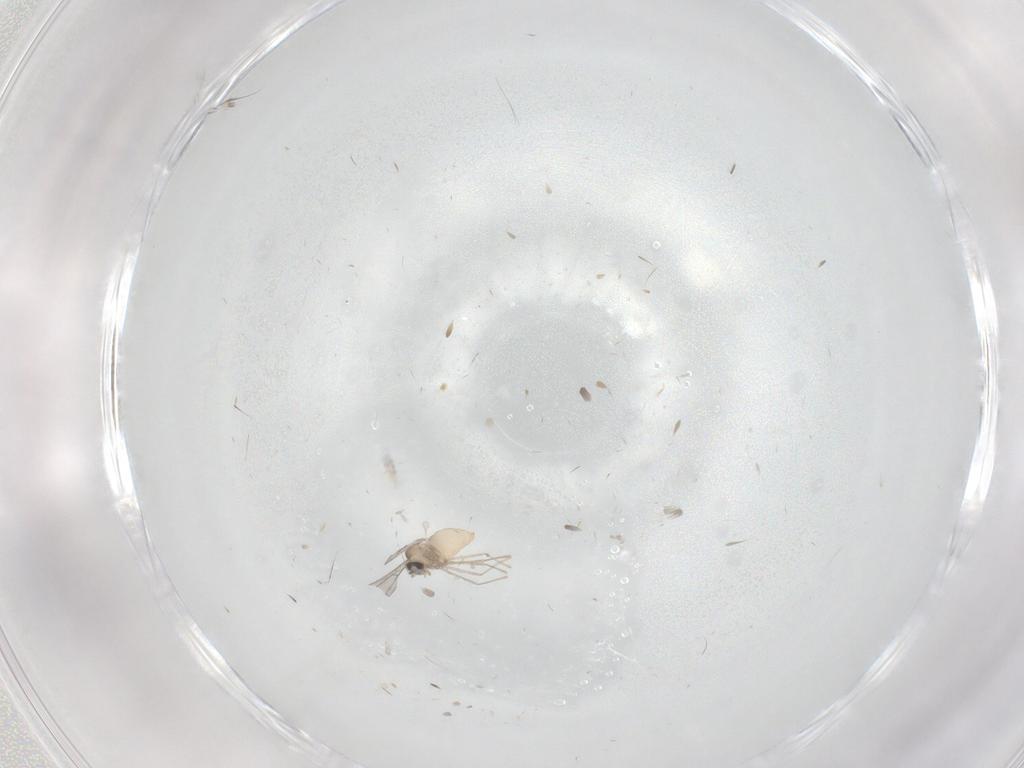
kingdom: Animalia
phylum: Arthropoda
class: Insecta
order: Diptera
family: Cecidomyiidae
